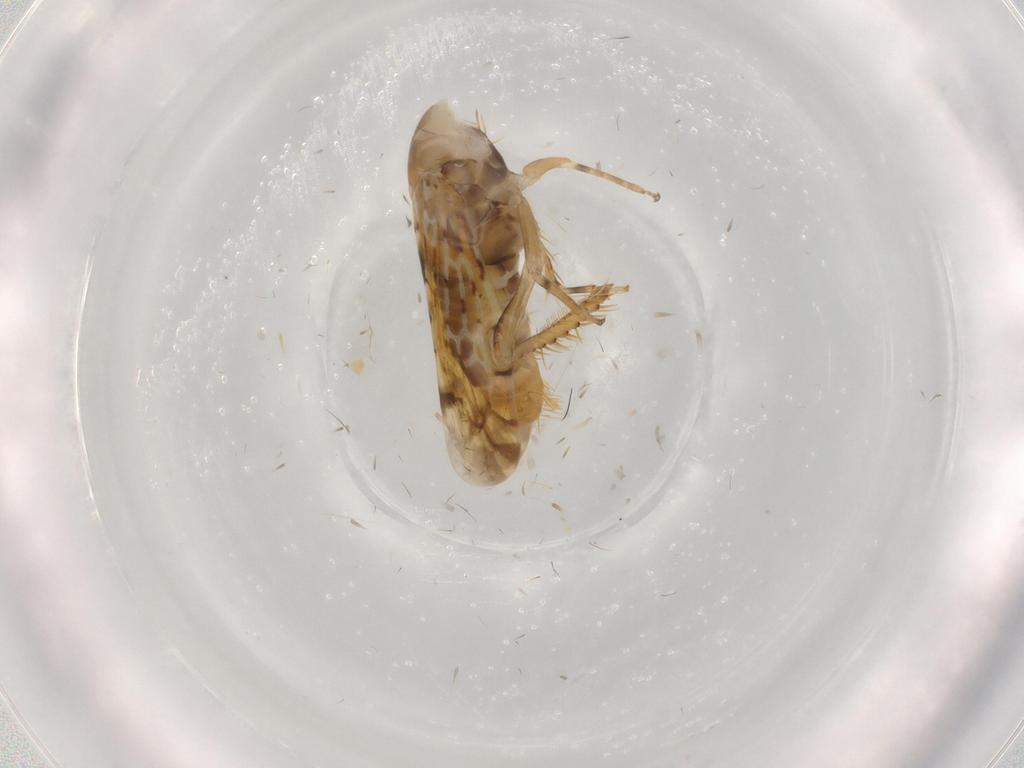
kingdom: Animalia
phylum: Arthropoda
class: Insecta
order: Hemiptera
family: Cicadellidae
